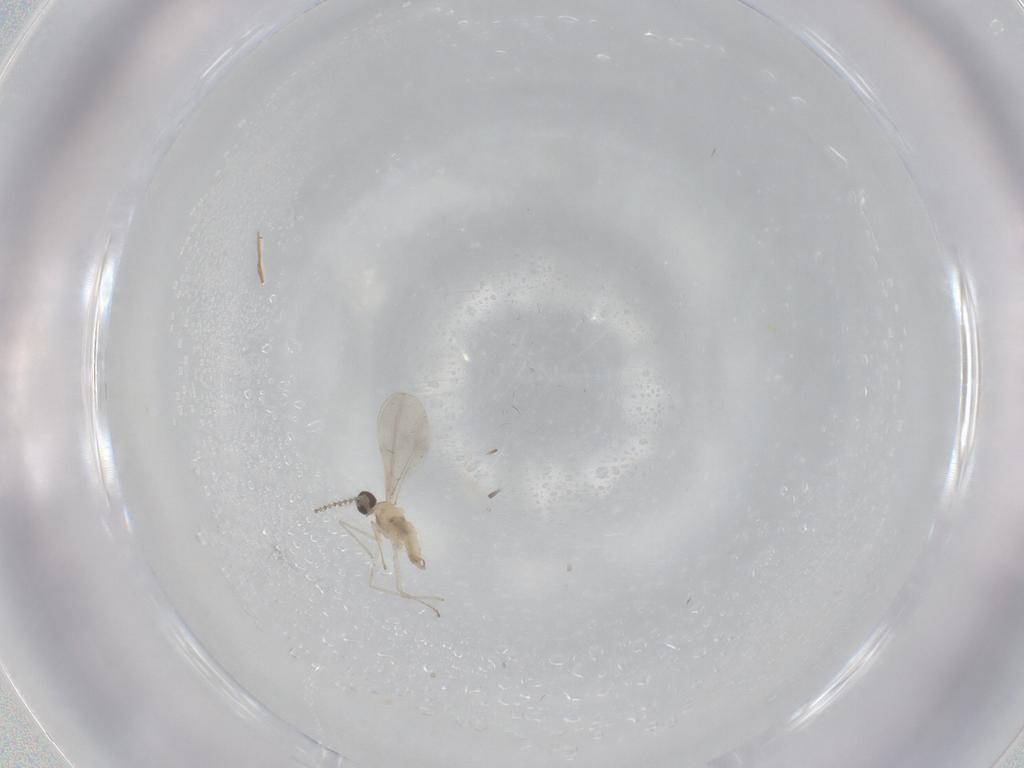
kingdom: Animalia
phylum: Arthropoda
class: Insecta
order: Diptera
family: Cecidomyiidae
